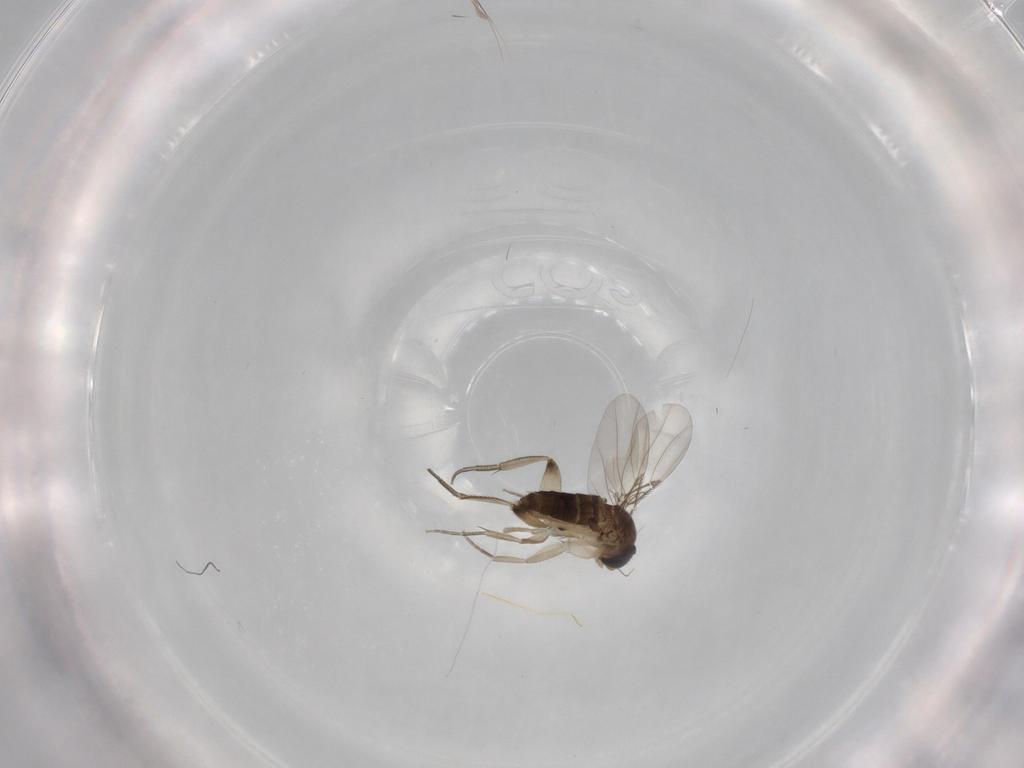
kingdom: Animalia
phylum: Arthropoda
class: Insecta
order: Diptera
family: Phoridae
